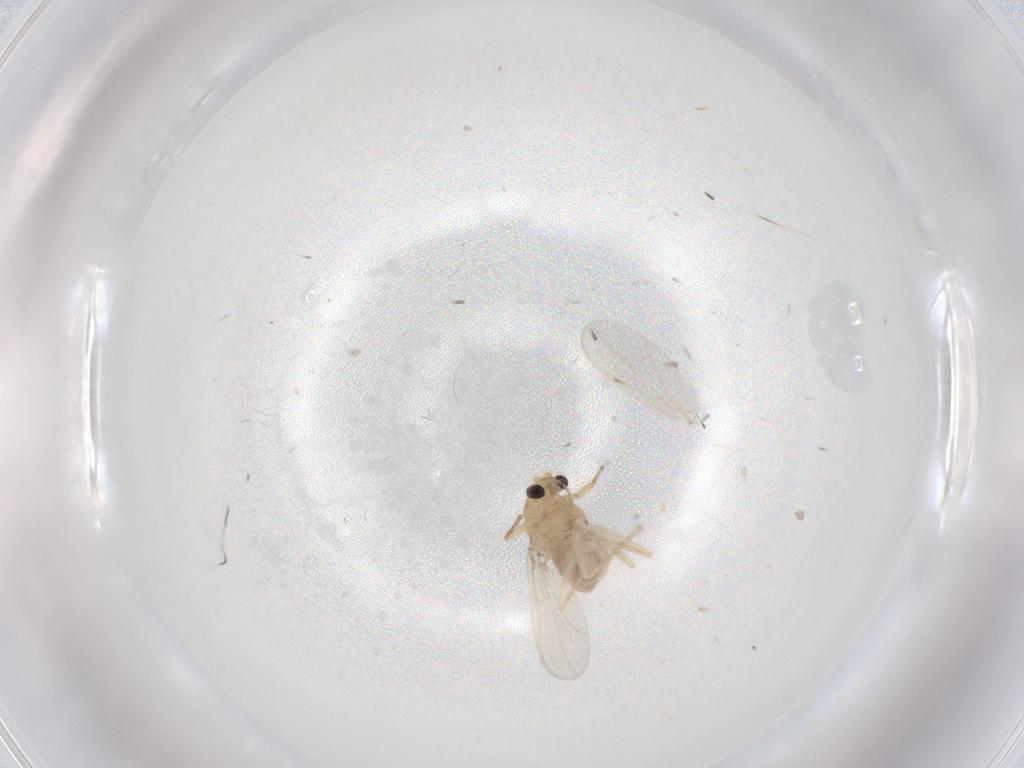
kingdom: Animalia
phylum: Arthropoda
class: Insecta
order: Diptera
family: Chironomidae
